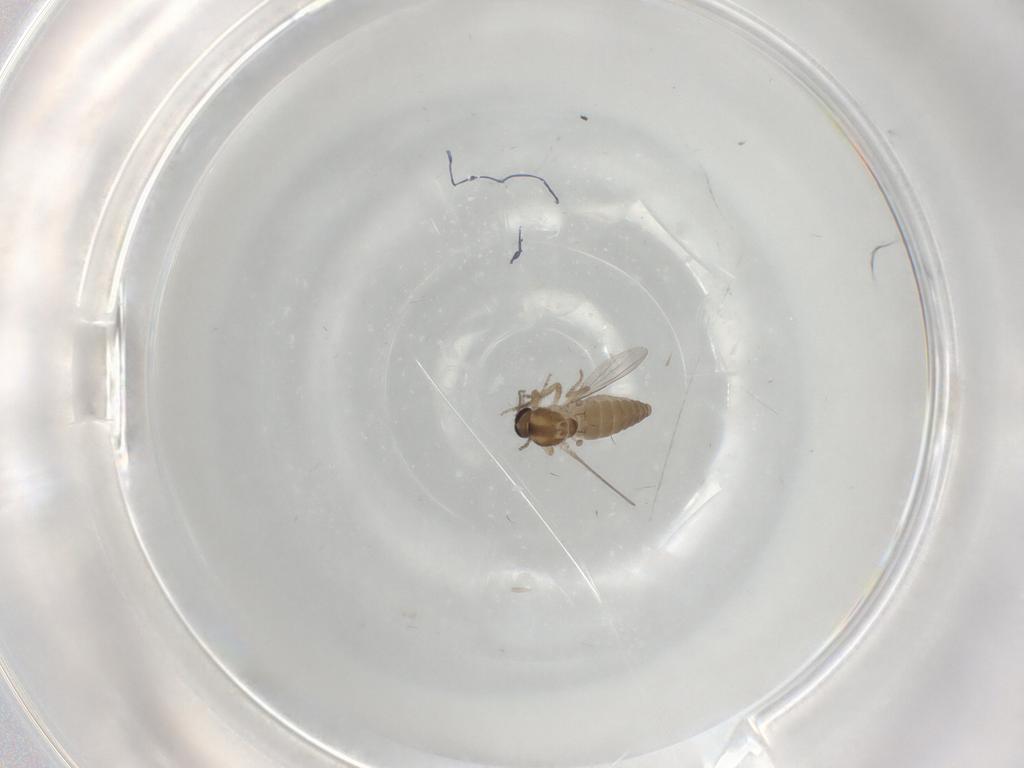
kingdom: Animalia
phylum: Arthropoda
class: Insecta
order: Diptera
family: Ceratopogonidae
